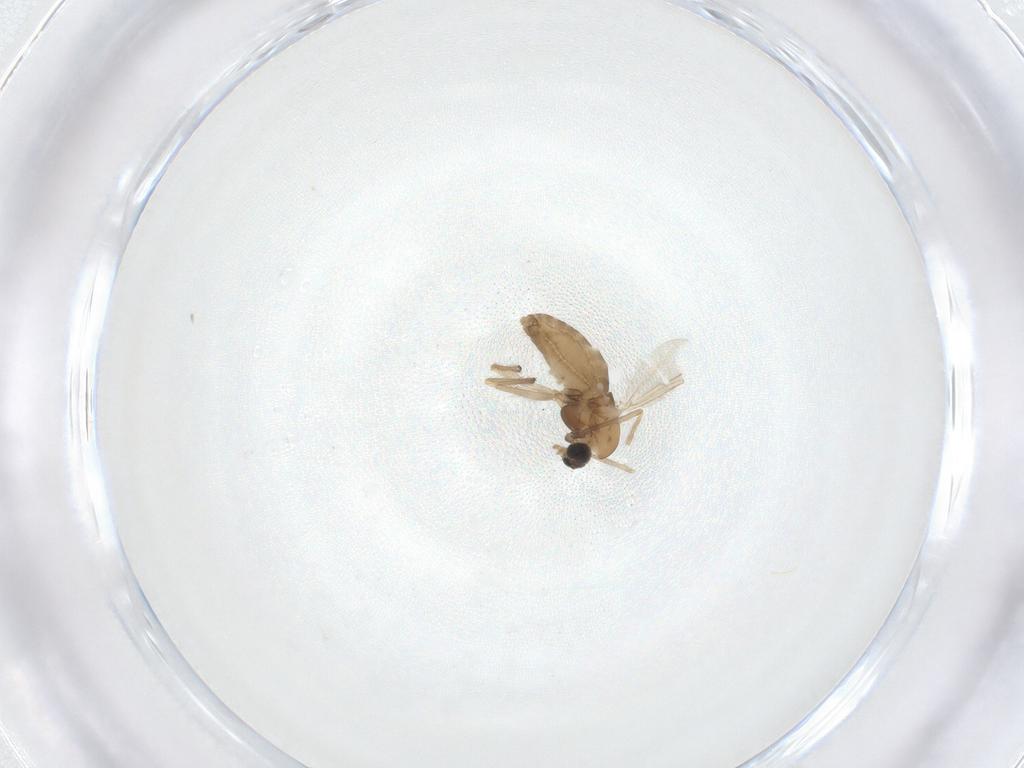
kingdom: Animalia
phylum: Arthropoda
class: Insecta
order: Diptera
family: Chironomidae
